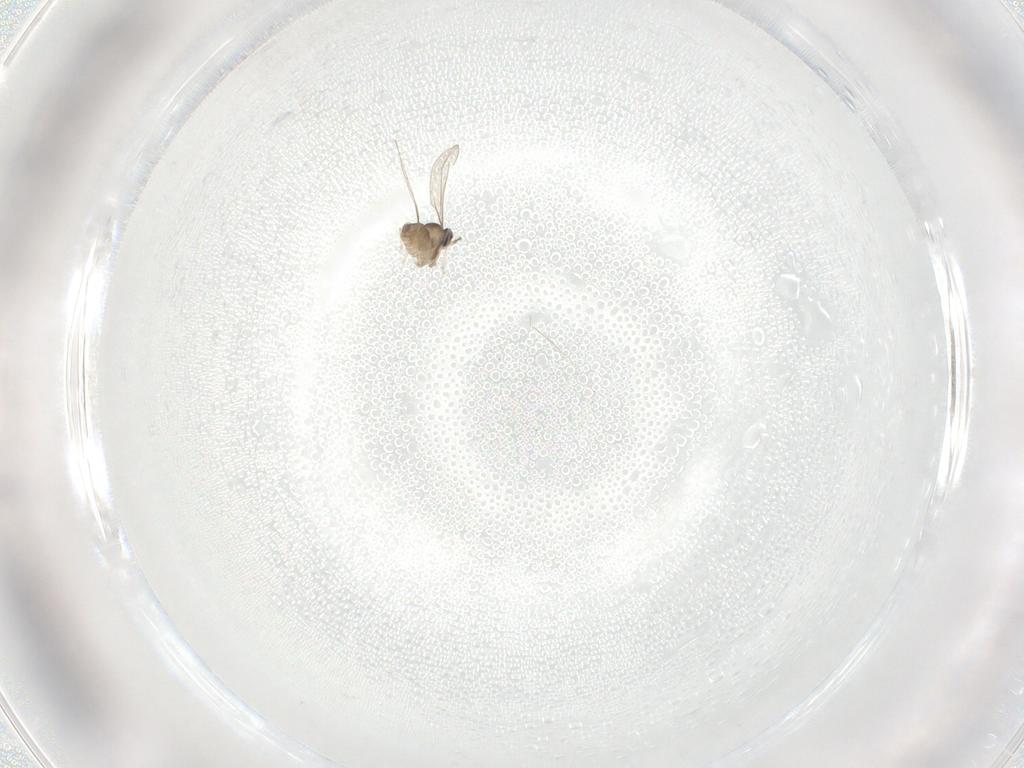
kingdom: Animalia
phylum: Arthropoda
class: Insecta
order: Diptera
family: Cecidomyiidae
